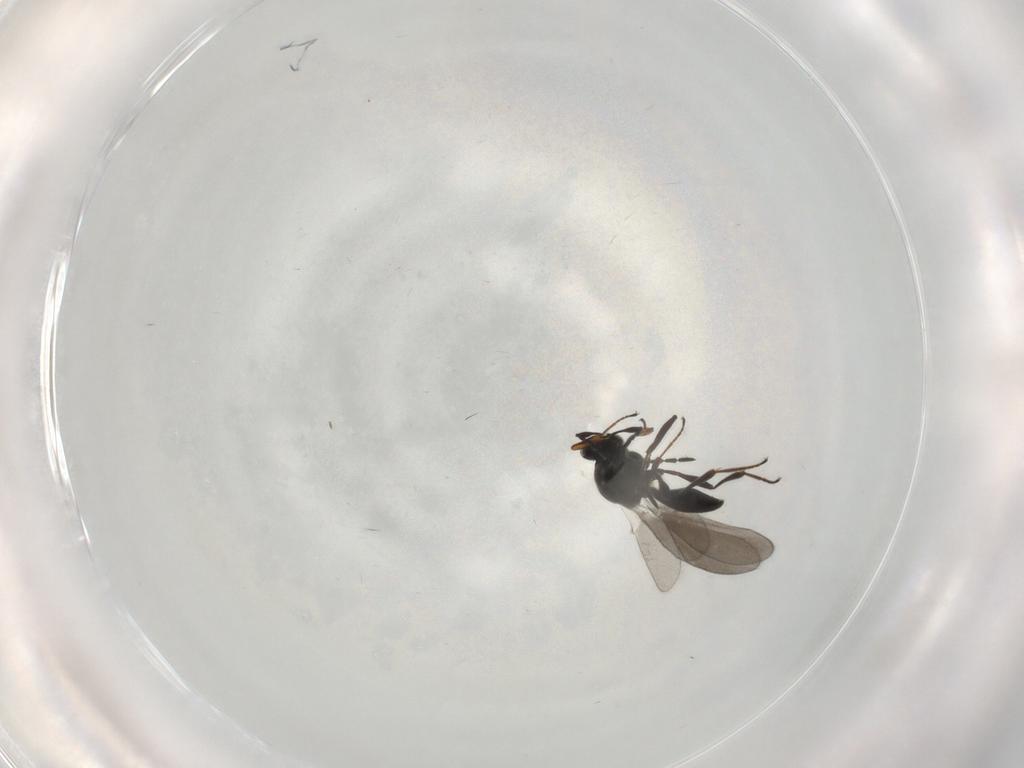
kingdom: Animalia
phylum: Arthropoda
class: Insecta
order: Hymenoptera
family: Platygastridae
